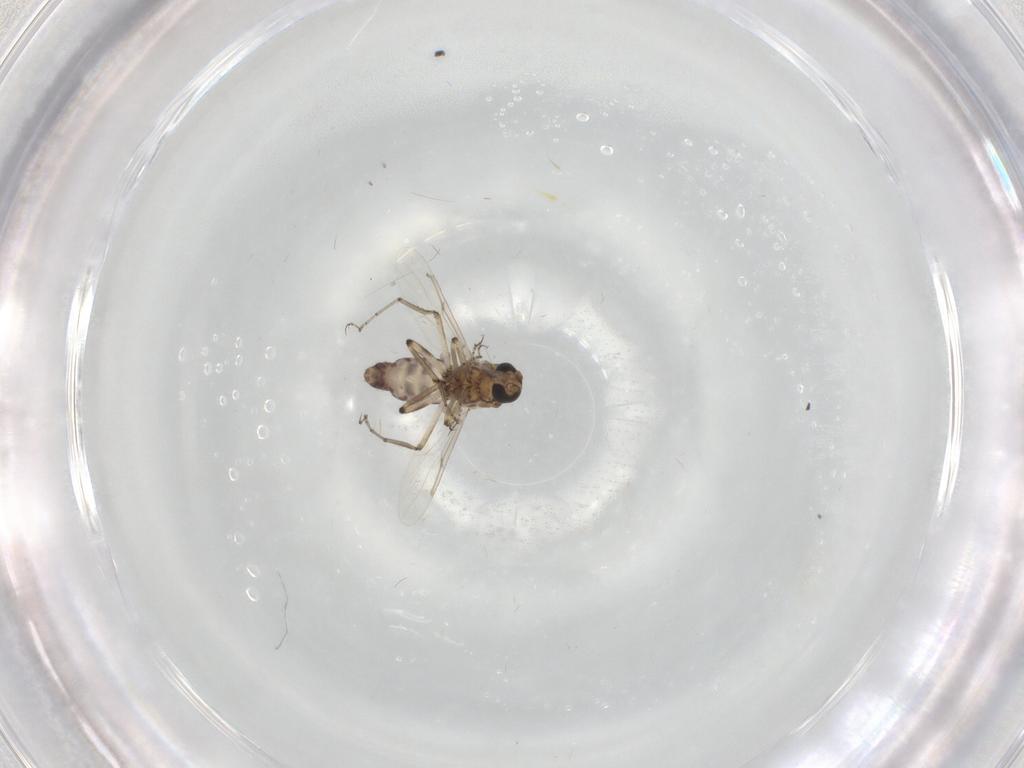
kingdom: Animalia
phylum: Arthropoda
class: Insecta
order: Diptera
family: Ceratopogonidae
